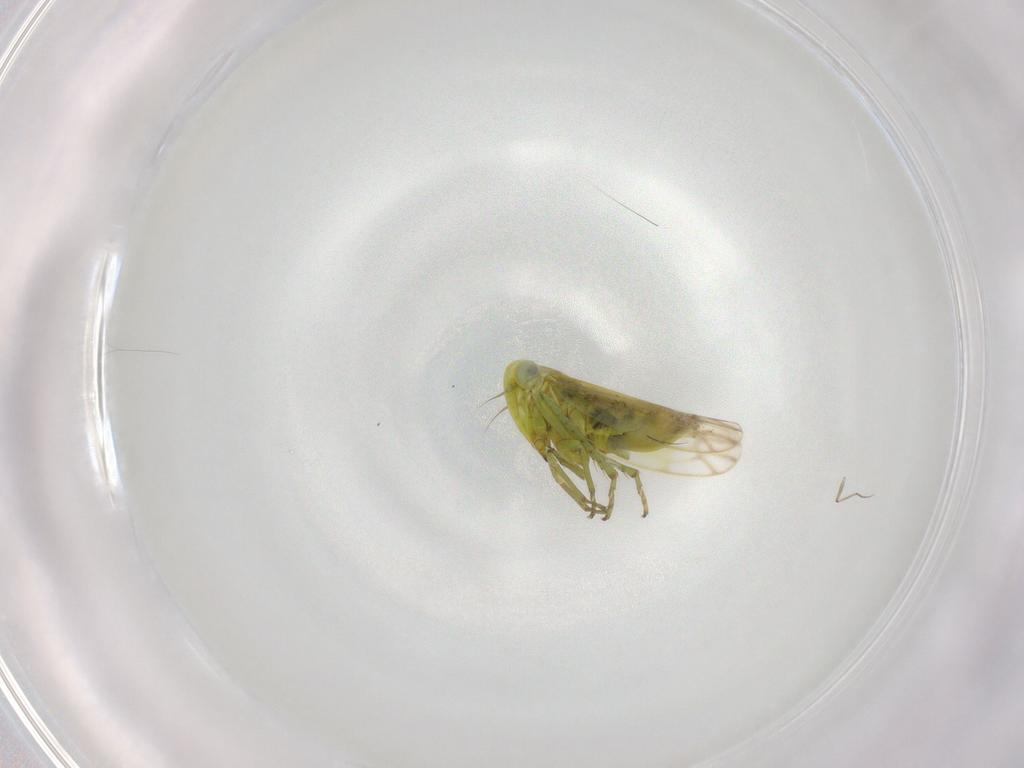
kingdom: Animalia
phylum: Arthropoda
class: Insecta
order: Hemiptera
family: Cicadellidae
